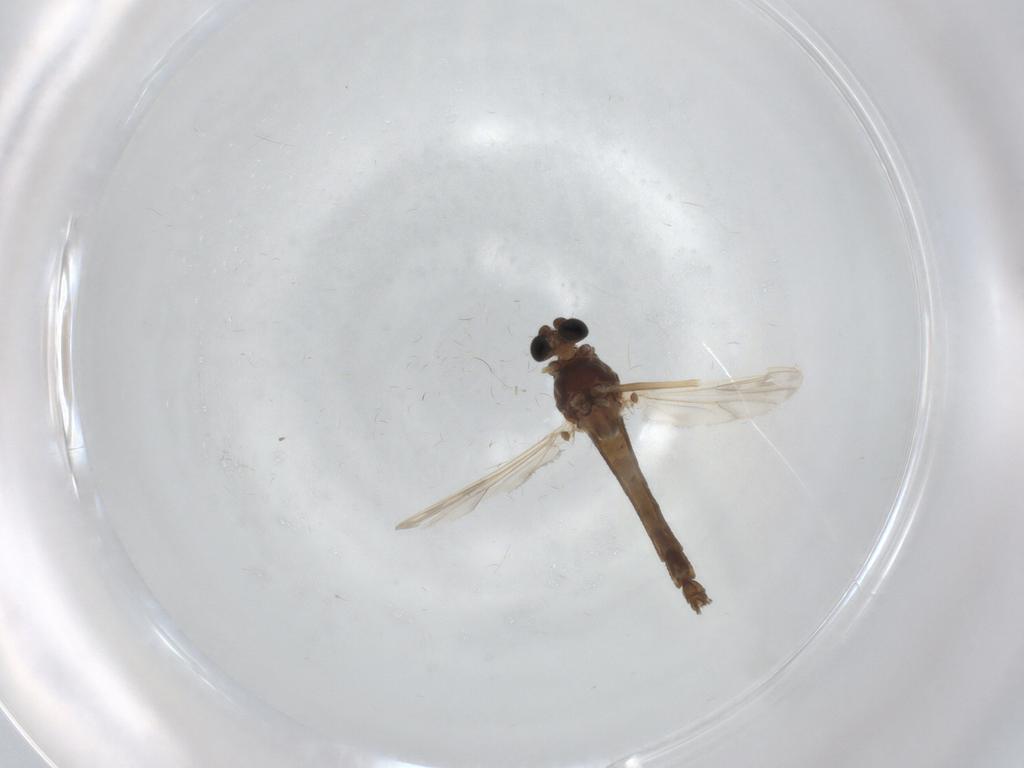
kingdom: Animalia
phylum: Arthropoda
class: Insecta
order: Diptera
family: Chironomidae
